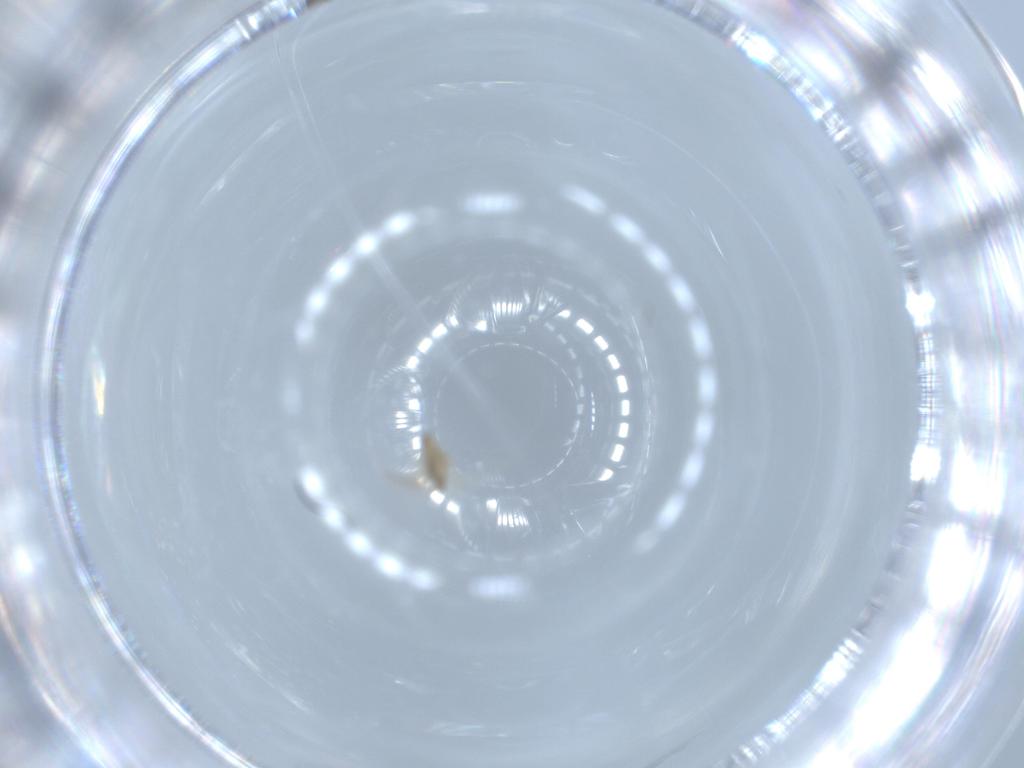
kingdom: Animalia
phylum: Arthropoda
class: Insecta
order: Diptera
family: Cecidomyiidae
